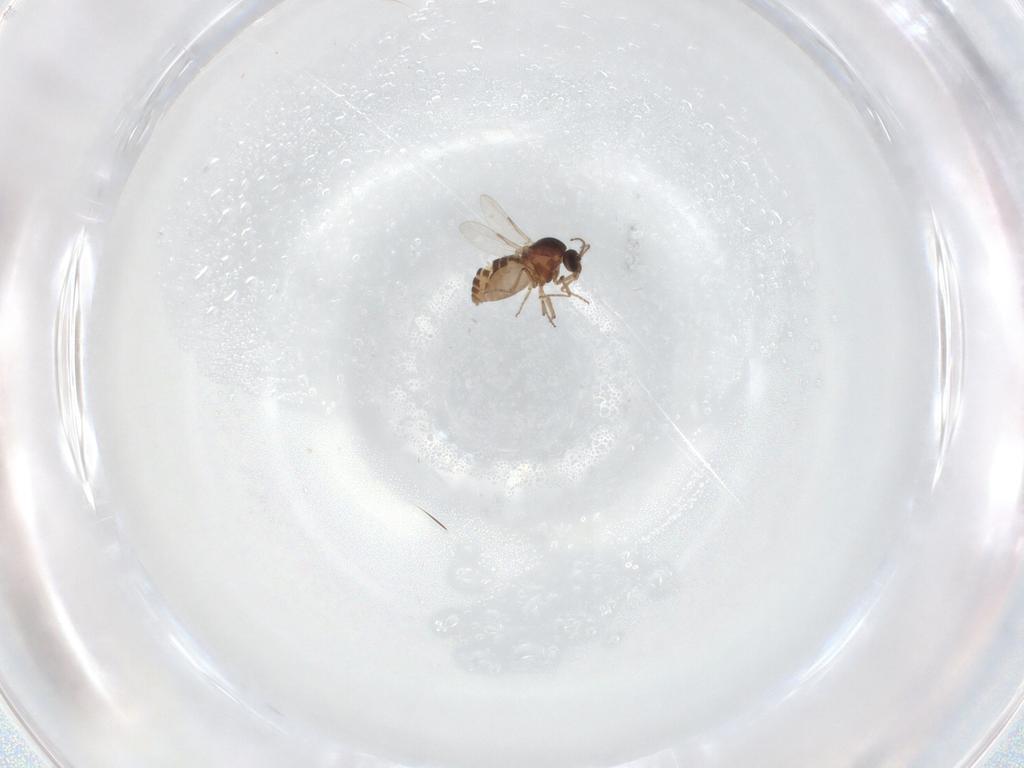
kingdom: Animalia
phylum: Arthropoda
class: Insecta
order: Diptera
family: Ceratopogonidae
